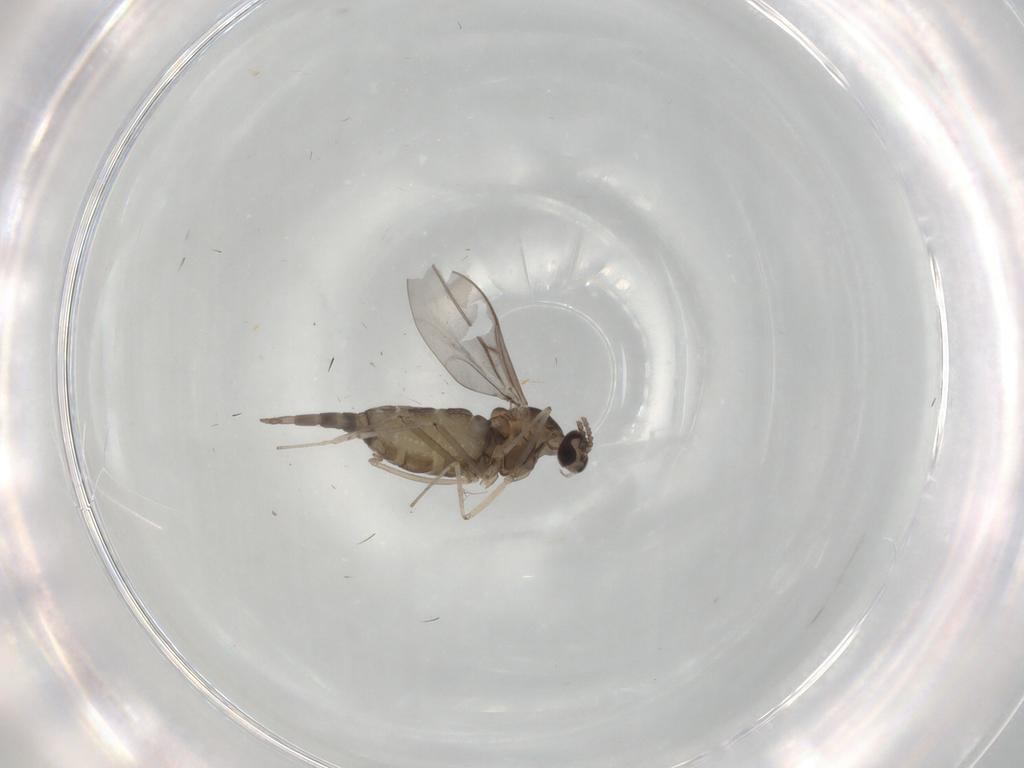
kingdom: Animalia
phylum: Arthropoda
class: Insecta
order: Diptera
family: Cecidomyiidae
